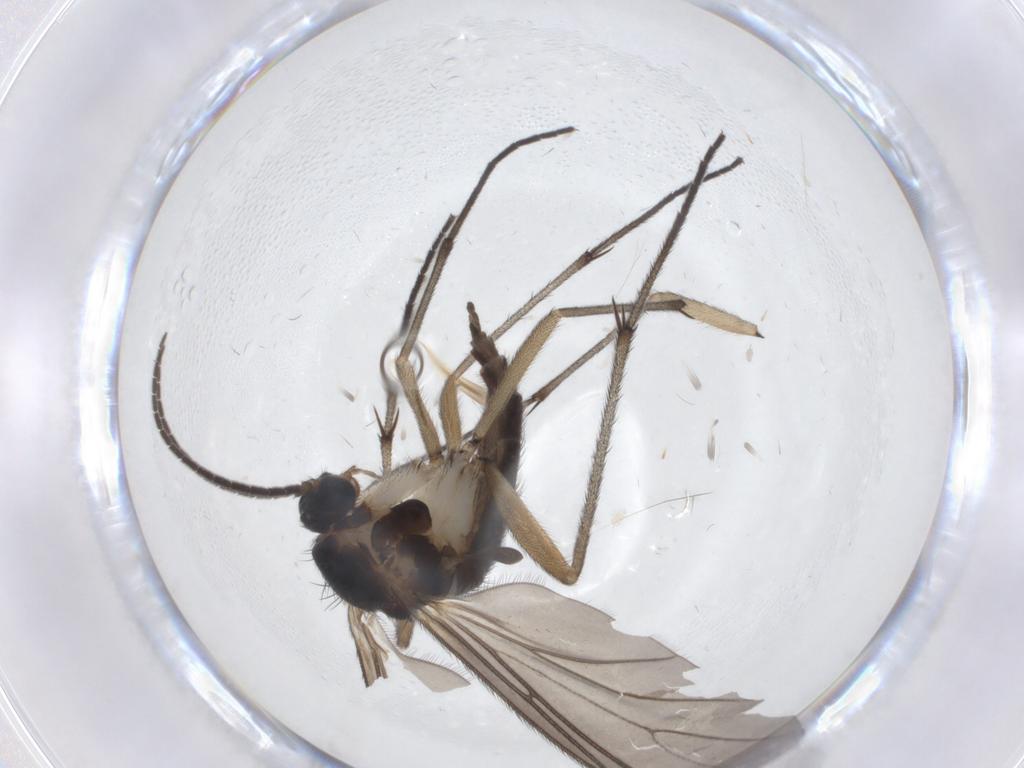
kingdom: Animalia
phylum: Arthropoda
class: Insecta
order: Diptera
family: Sciaridae
